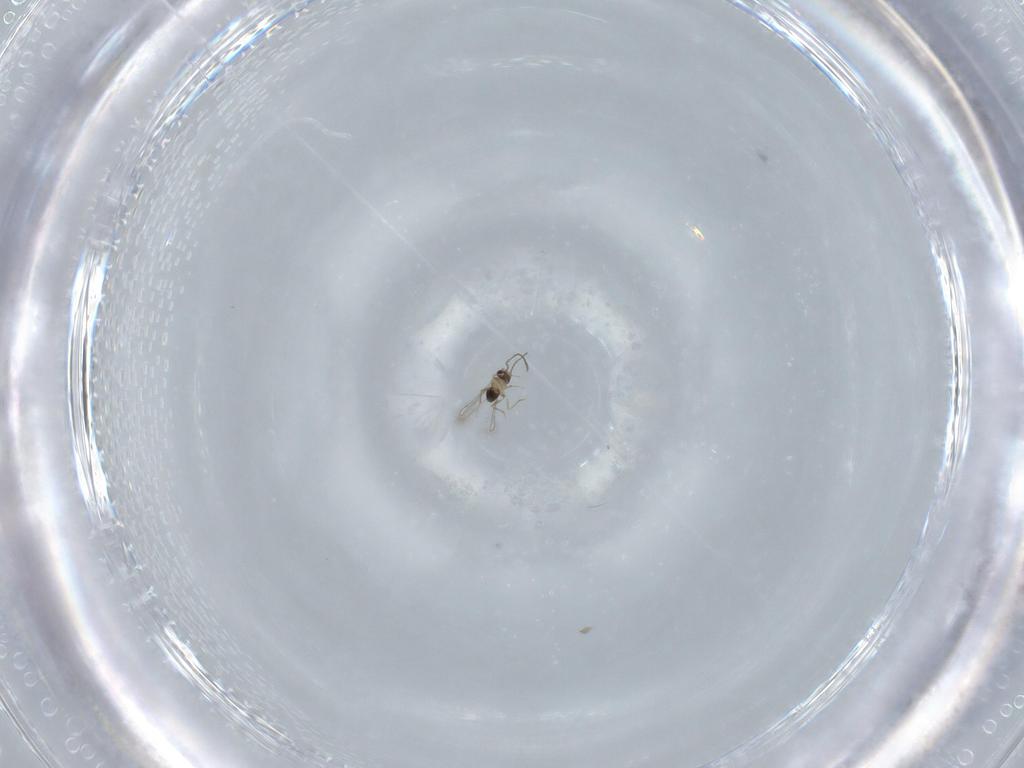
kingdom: Animalia
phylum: Arthropoda
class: Insecta
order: Hymenoptera
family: Mymaridae
